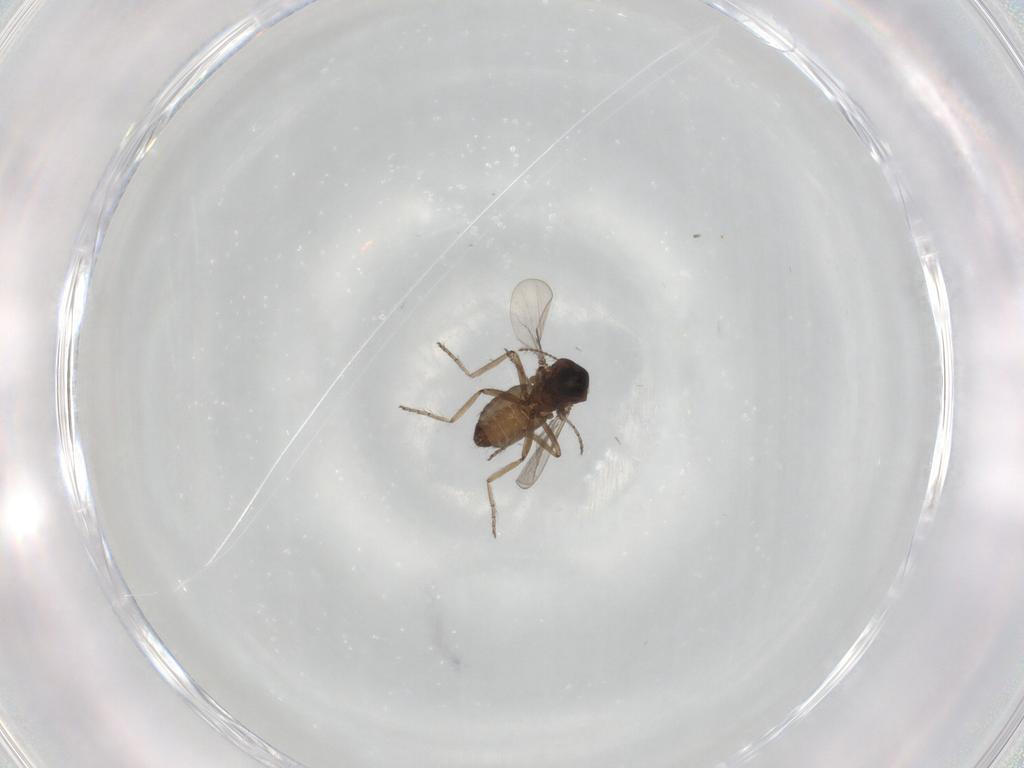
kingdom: Animalia
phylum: Arthropoda
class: Insecta
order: Diptera
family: Ceratopogonidae
